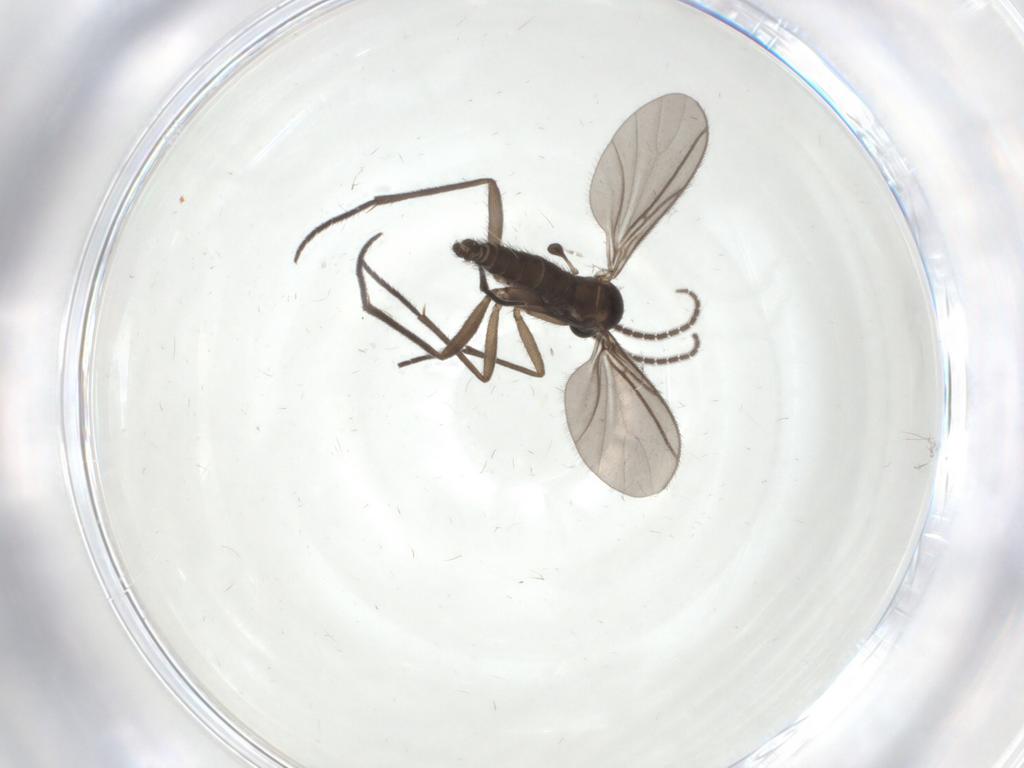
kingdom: Animalia
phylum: Arthropoda
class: Insecta
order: Diptera
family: Sciaridae
